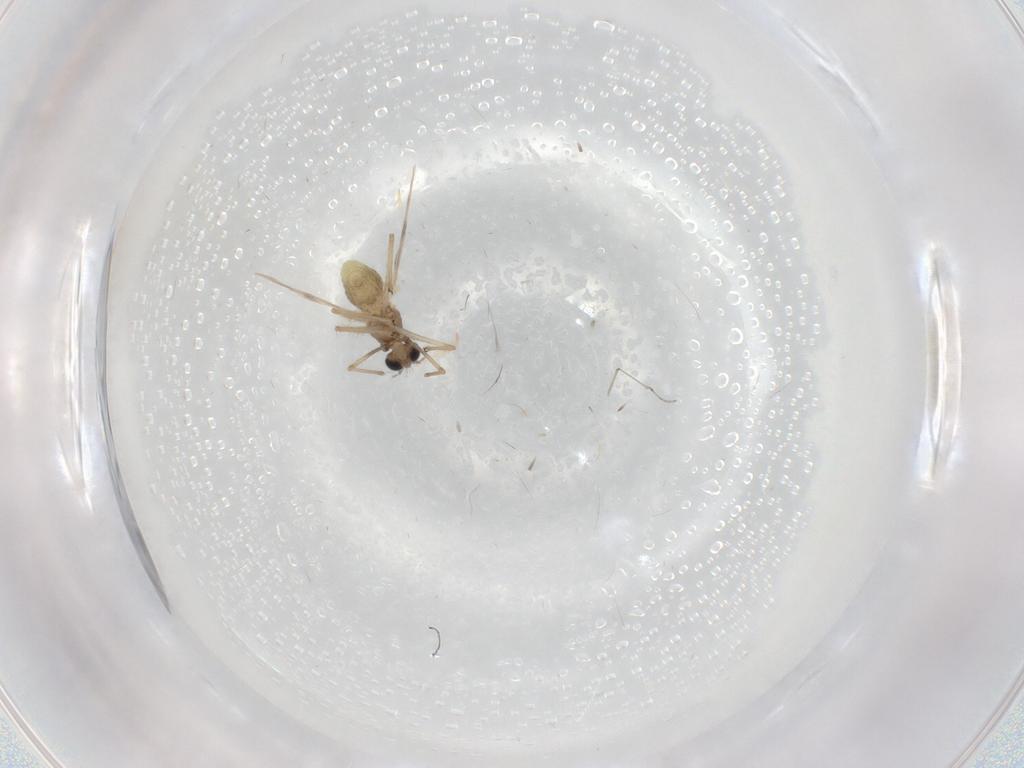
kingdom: Animalia
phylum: Arthropoda
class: Insecta
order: Diptera
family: Chironomidae
